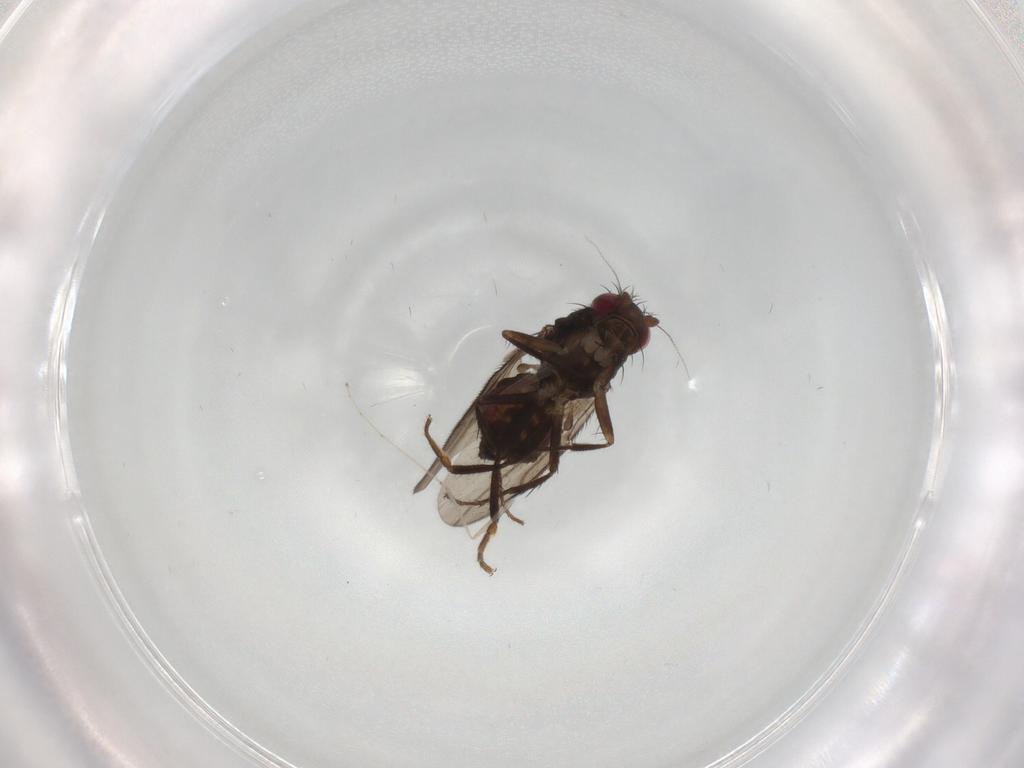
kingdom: Animalia
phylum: Arthropoda
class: Insecta
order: Diptera
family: Sphaeroceridae
